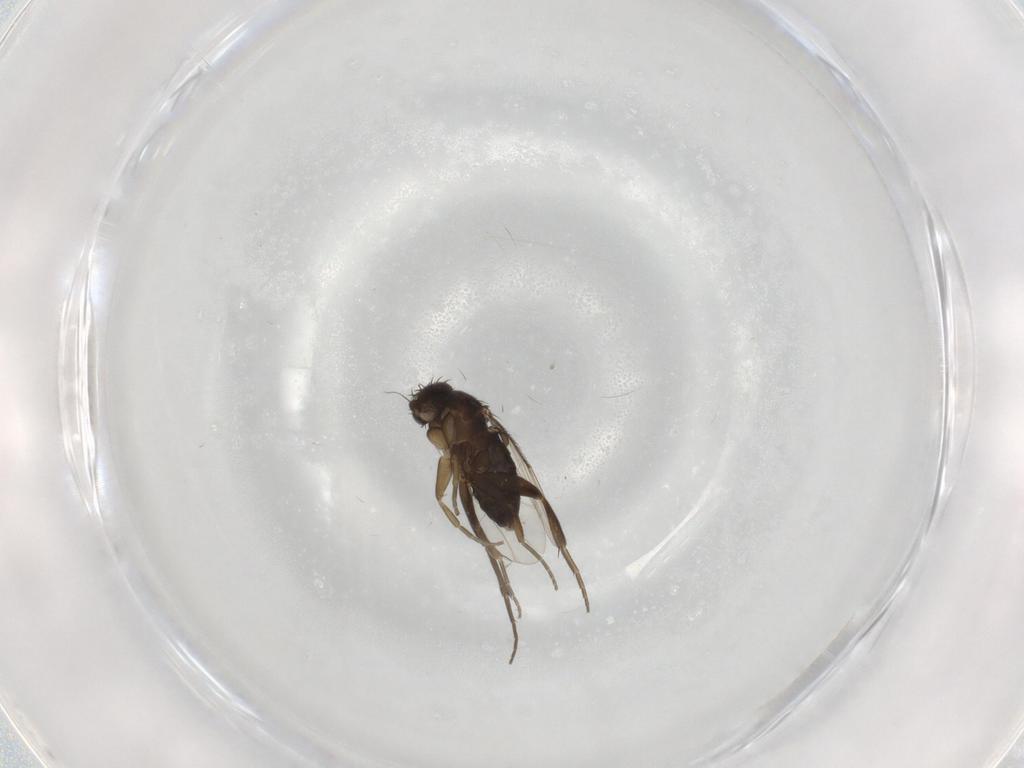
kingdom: Animalia
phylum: Arthropoda
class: Insecta
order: Diptera
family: Phoridae
